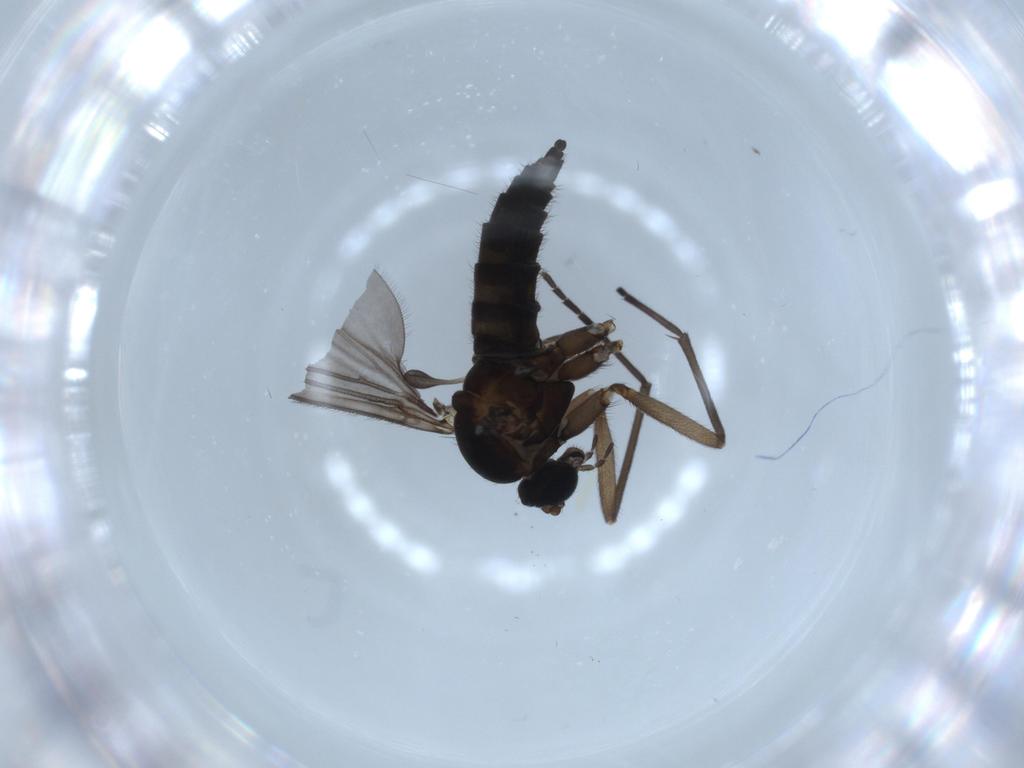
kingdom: Animalia
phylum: Arthropoda
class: Insecta
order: Diptera
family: Sciaridae
